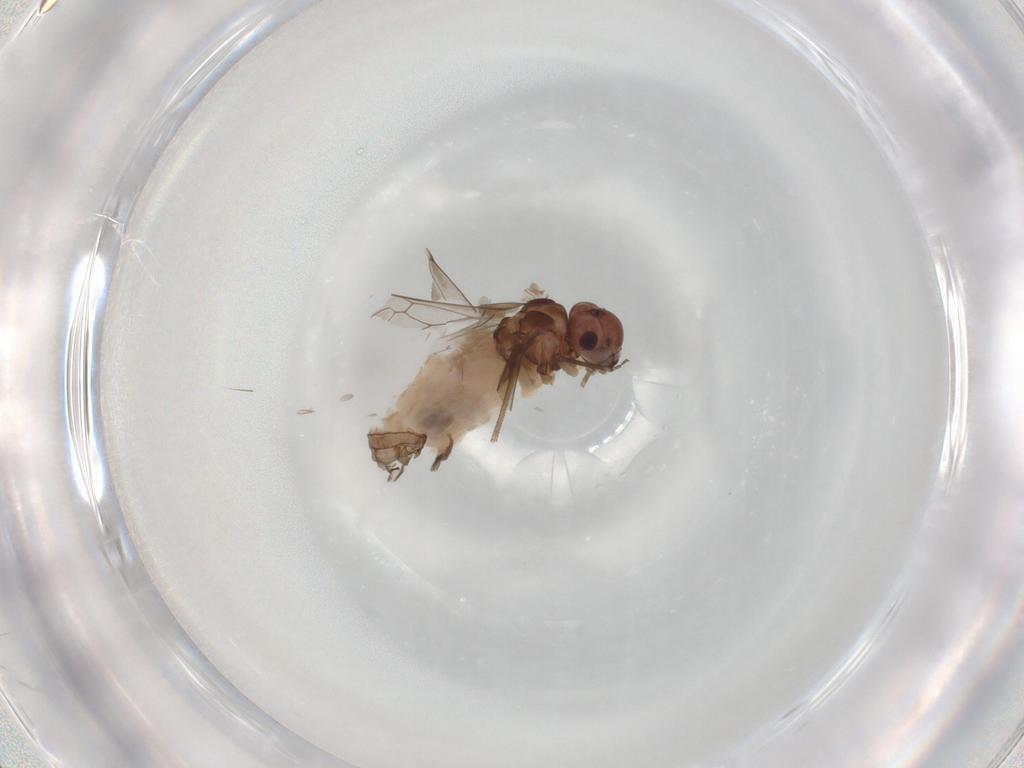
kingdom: Animalia
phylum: Arthropoda
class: Insecta
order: Psocodea
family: Peripsocidae
